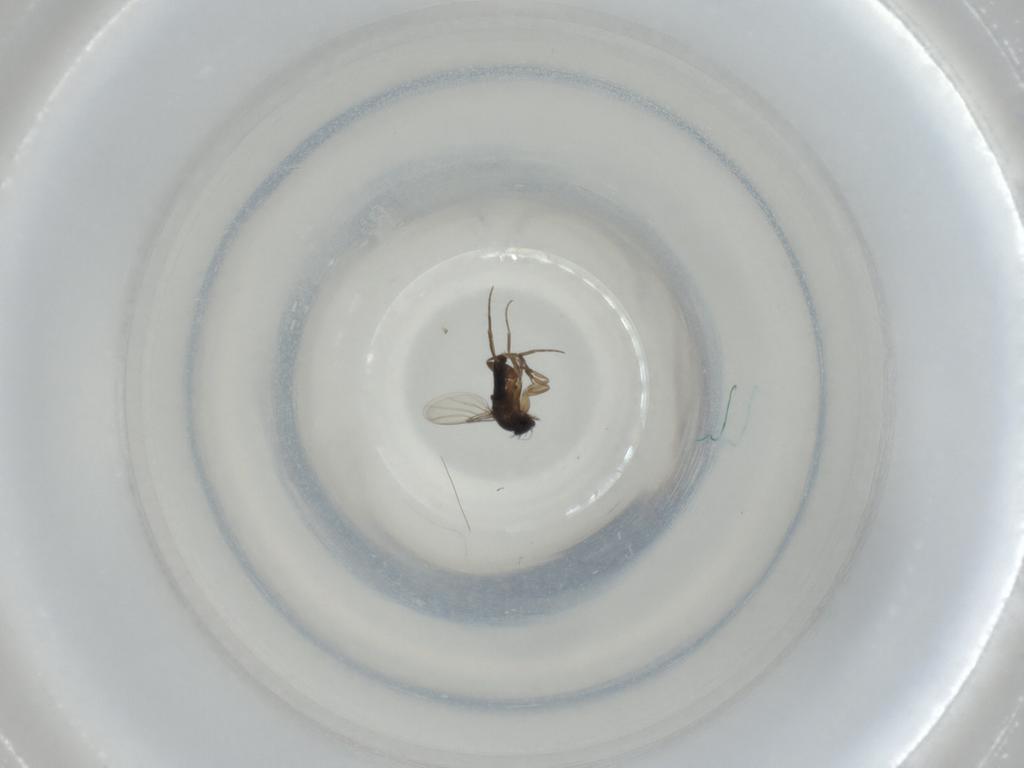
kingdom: Animalia
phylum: Arthropoda
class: Insecta
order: Diptera
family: Phoridae
